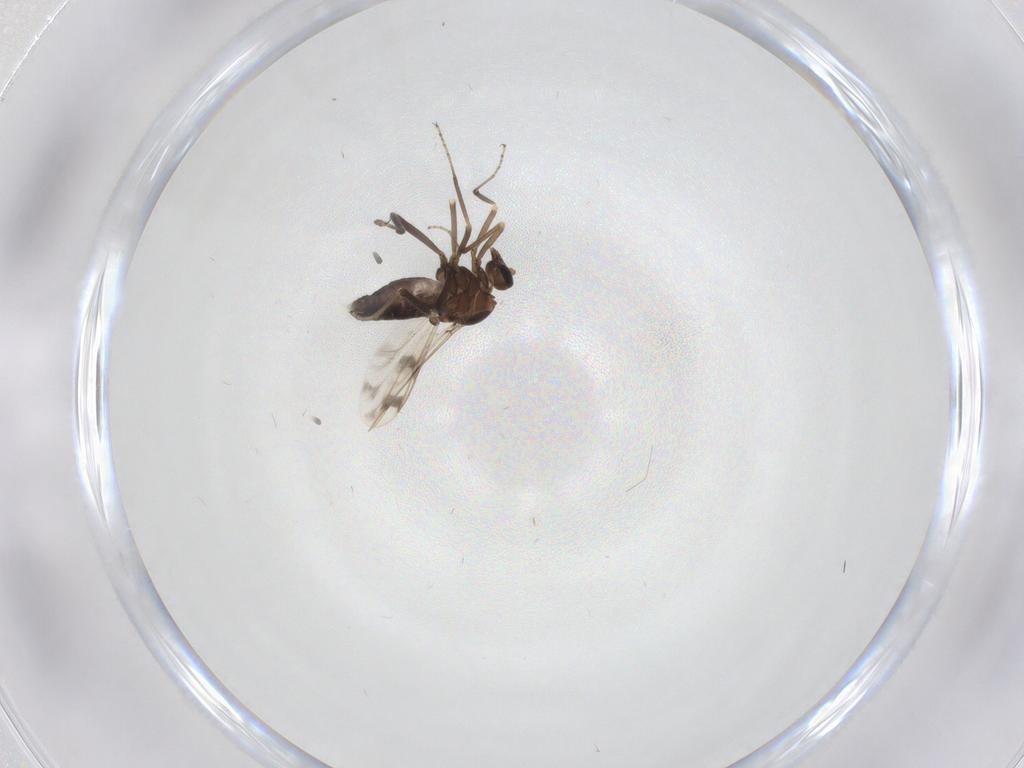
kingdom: Animalia
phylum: Arthropoda
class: Insecta
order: Diptera
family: Ceratopogonidae
